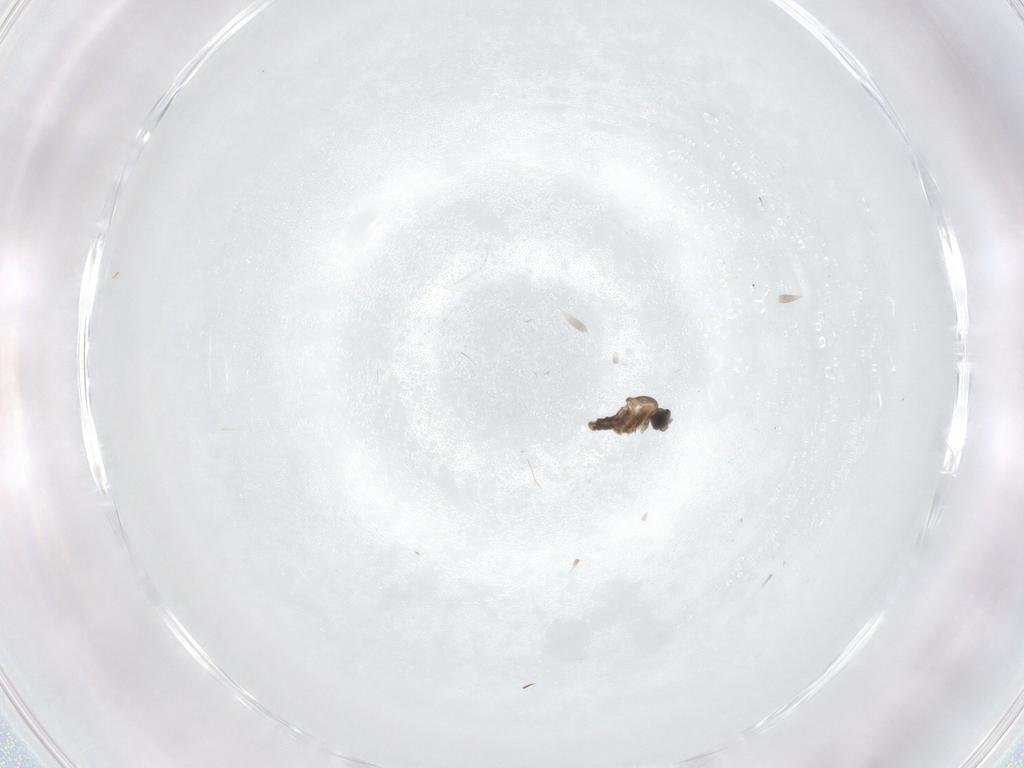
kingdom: Animalia
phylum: Arthropoda
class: Insecta
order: Diptera
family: Cecidomyiidae
